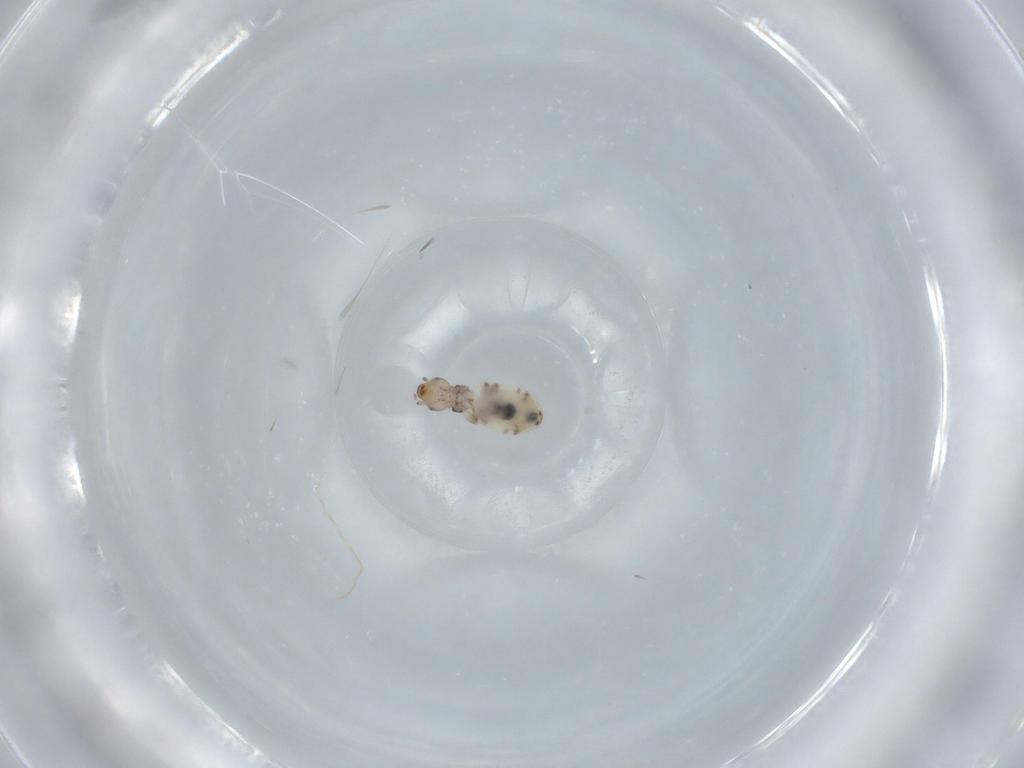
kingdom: Animalia
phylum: Arthropoda
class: Insecta
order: Psocodea
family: Liposcelididae
